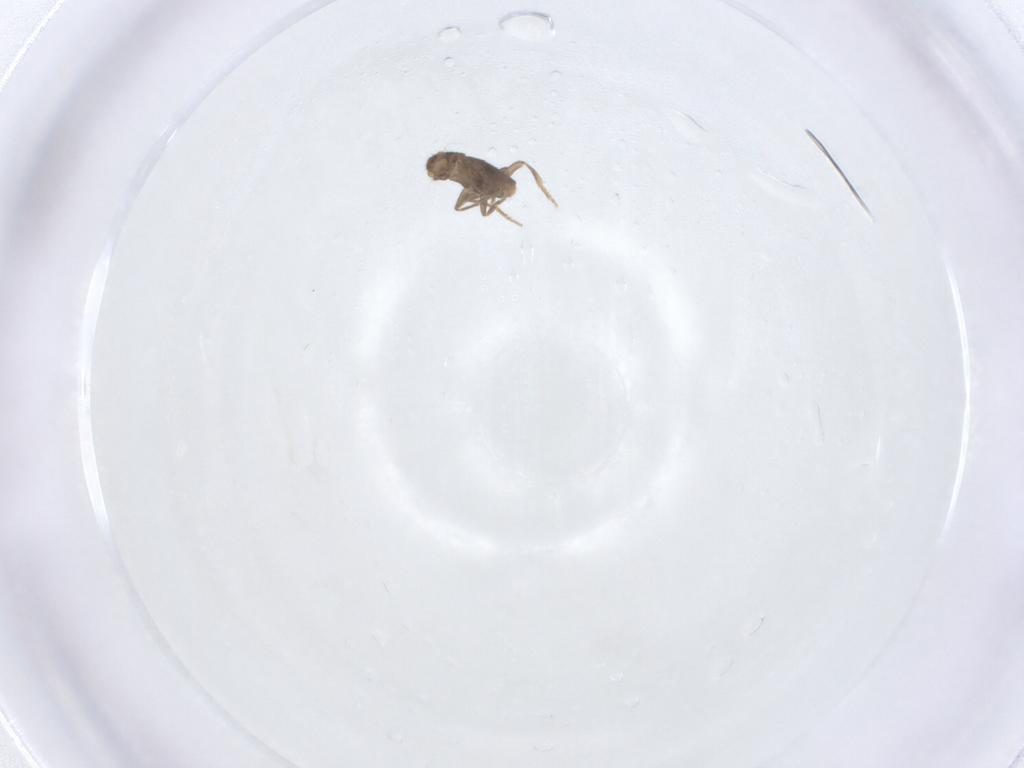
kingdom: Animalia
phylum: Arthropoda
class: Insecta
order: Diptera
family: Phoridae
